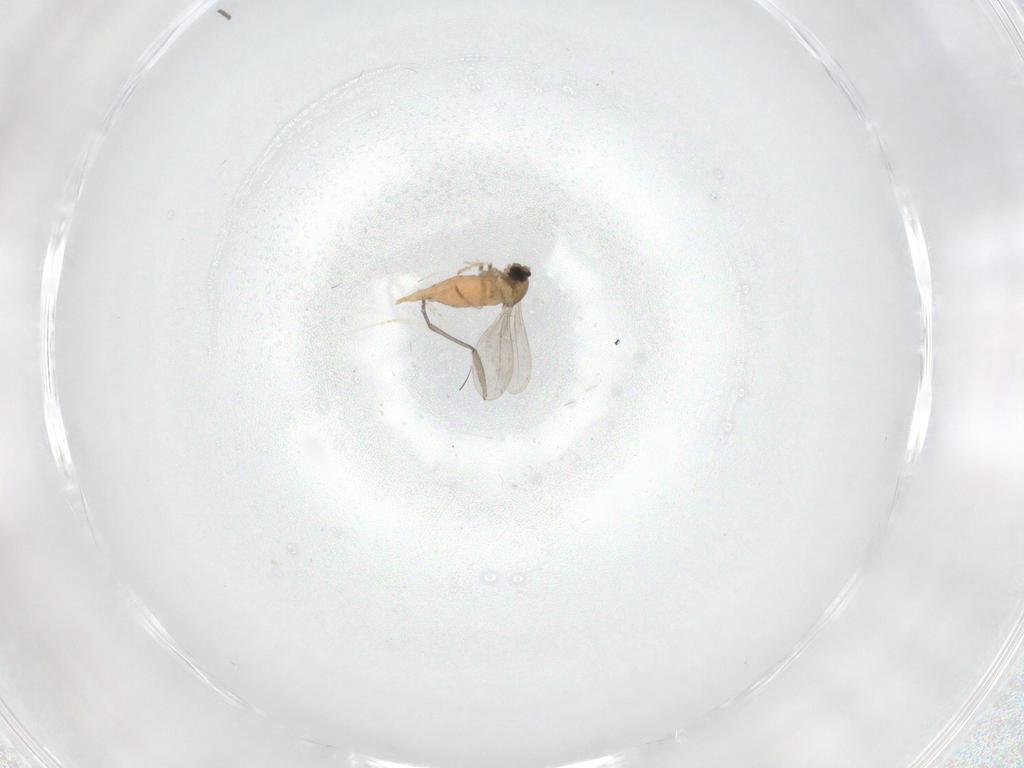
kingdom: Animalia
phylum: Arthropoda
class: Insecta
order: Diptera
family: Cecidomyiidae
